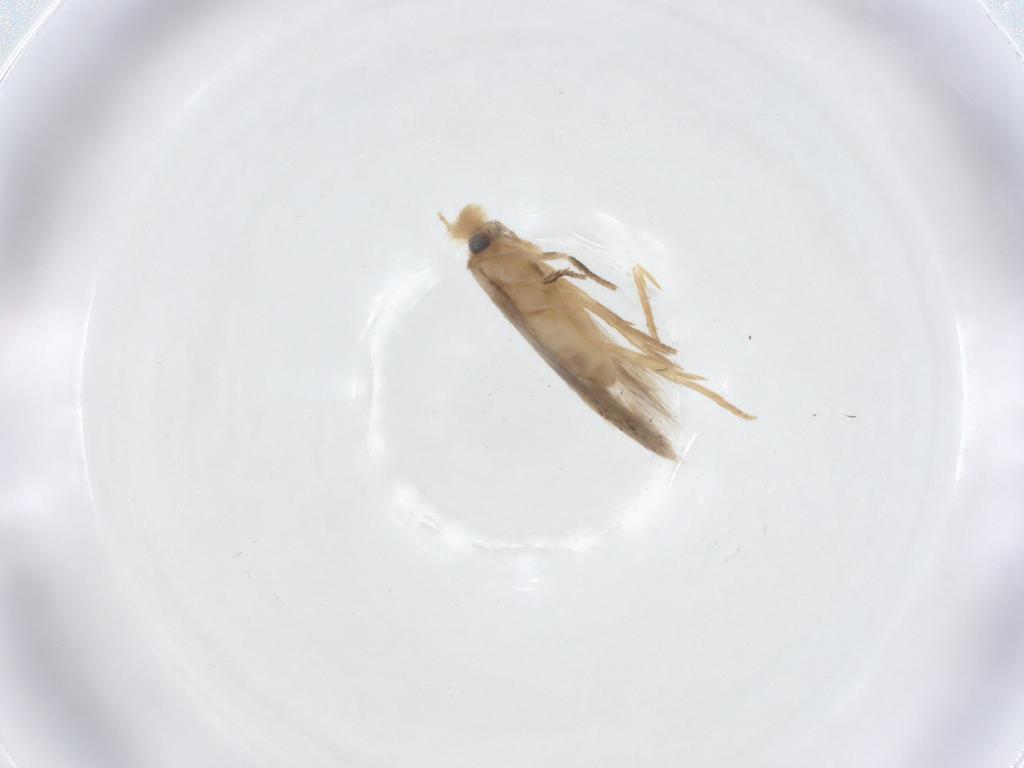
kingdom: Animalia
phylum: Arthropoda
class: Insecta
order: Lepidoptera
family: Nepticulidae
